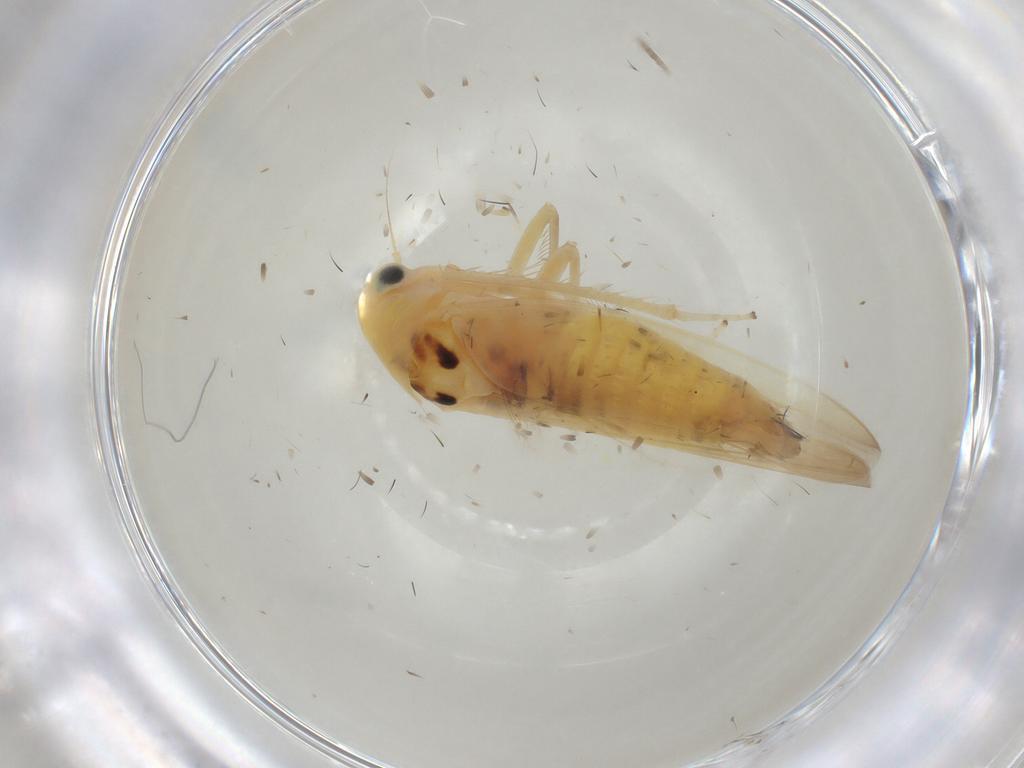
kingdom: Animalia
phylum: Arthropoda
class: Insecta
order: Hemiptera
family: Cicadellidae
